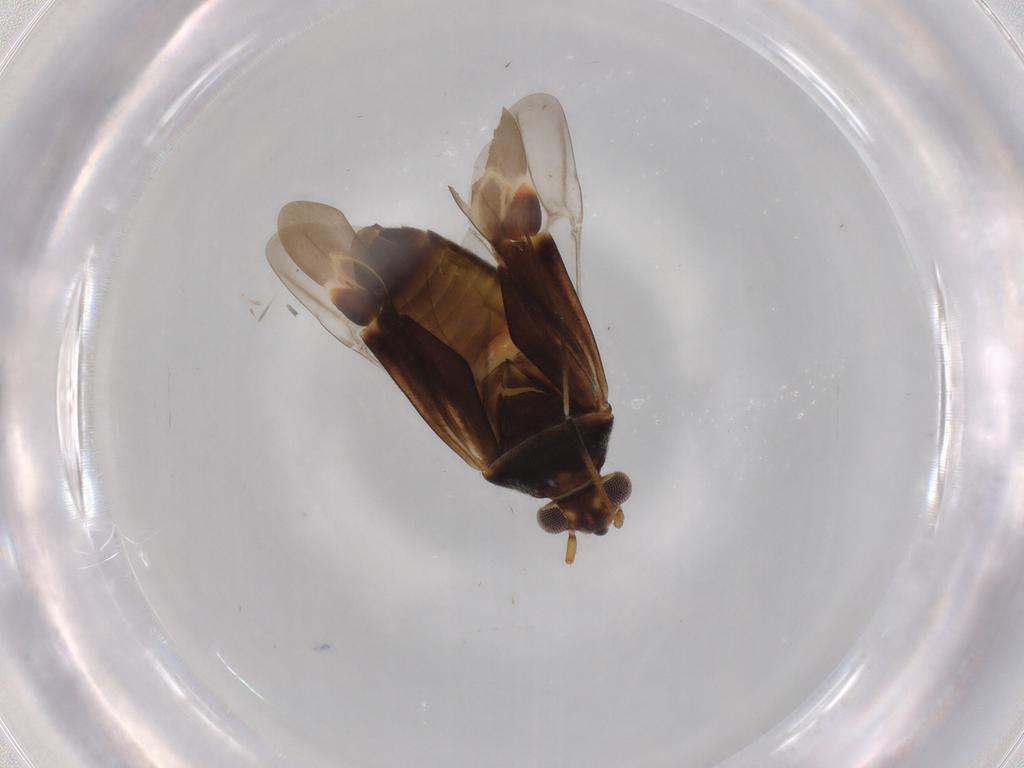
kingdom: Animalia
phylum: Arthropoda
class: Insecta
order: Hemiptera
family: Miridae
